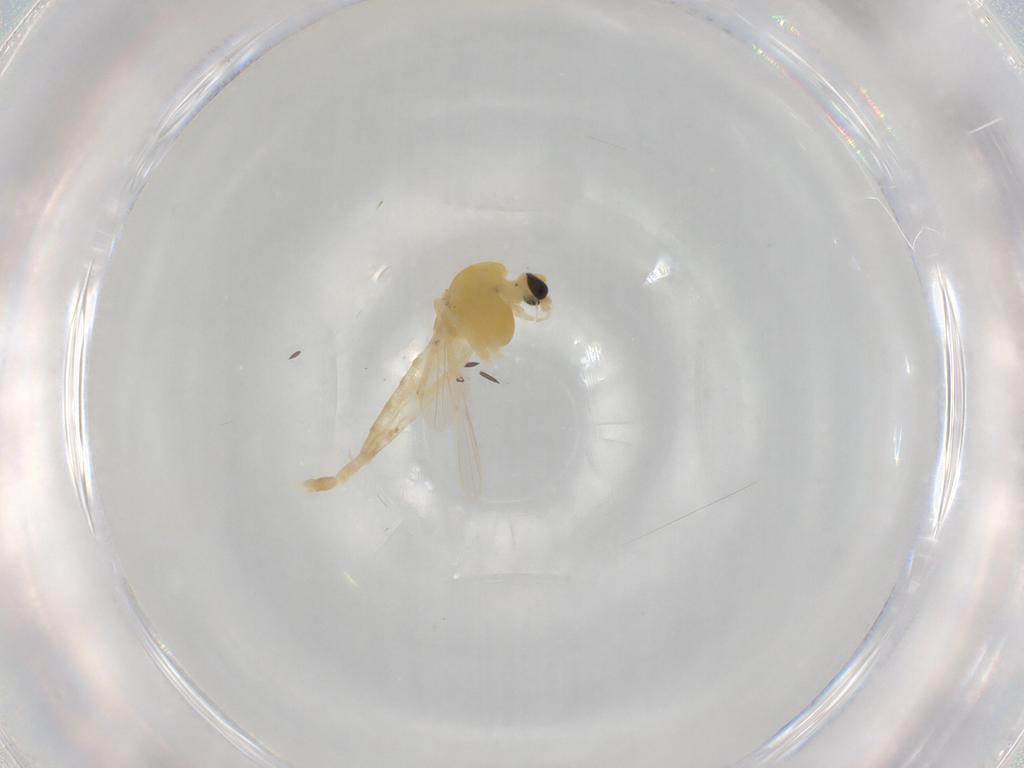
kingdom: Animalia
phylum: Arthropoda
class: Insecta
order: Diptera
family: Chironomidae
